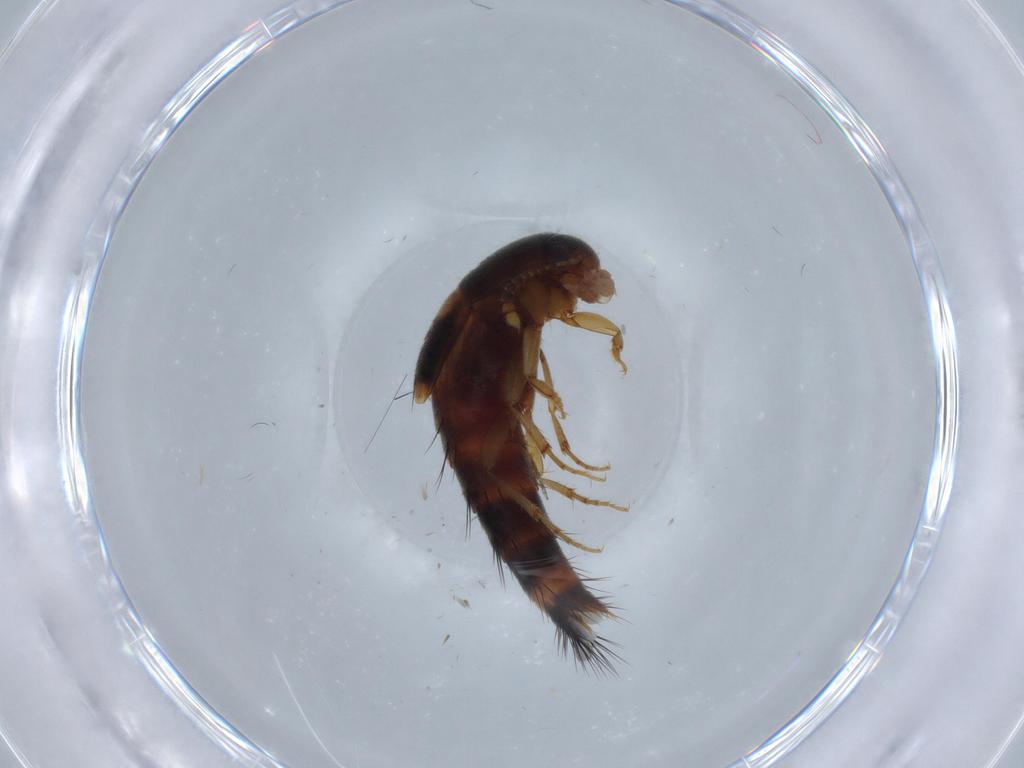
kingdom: Animalia
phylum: Arthropoda
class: Insecta
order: Coleoptera
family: Staphylinidae
